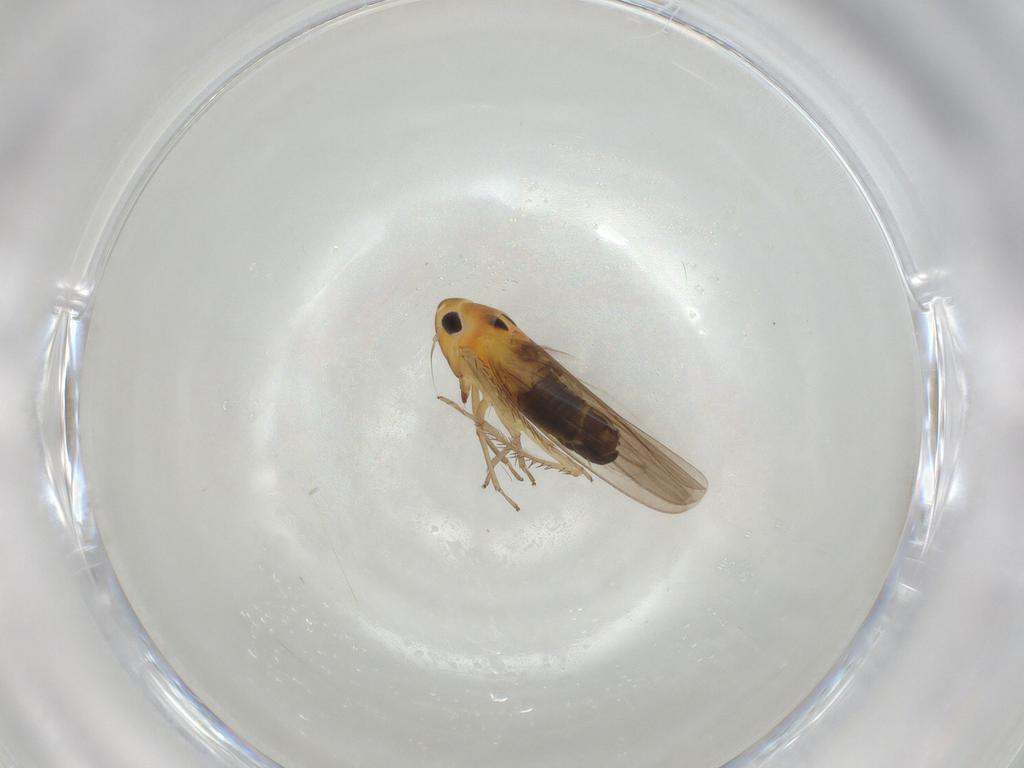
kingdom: Animalia
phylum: Arthropoda
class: Insecta
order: Hemiptera
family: Cicadellidae
